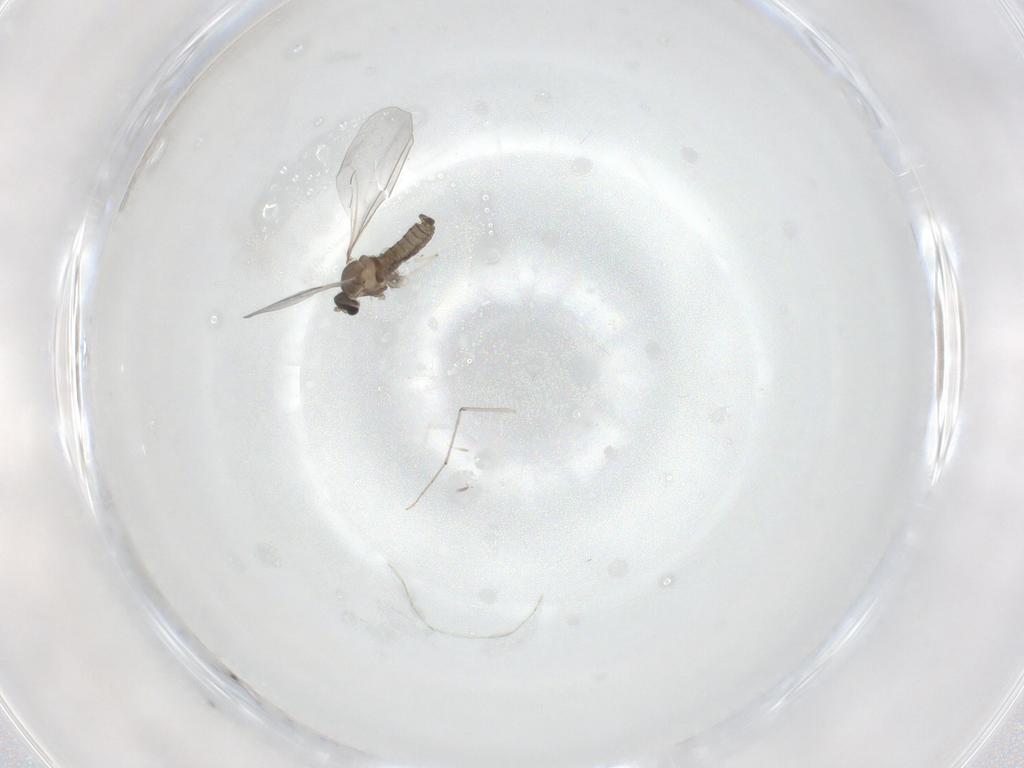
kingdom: Animalia
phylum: Arthropoda
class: Insecta
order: Diptera
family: Cecidomyiidae
